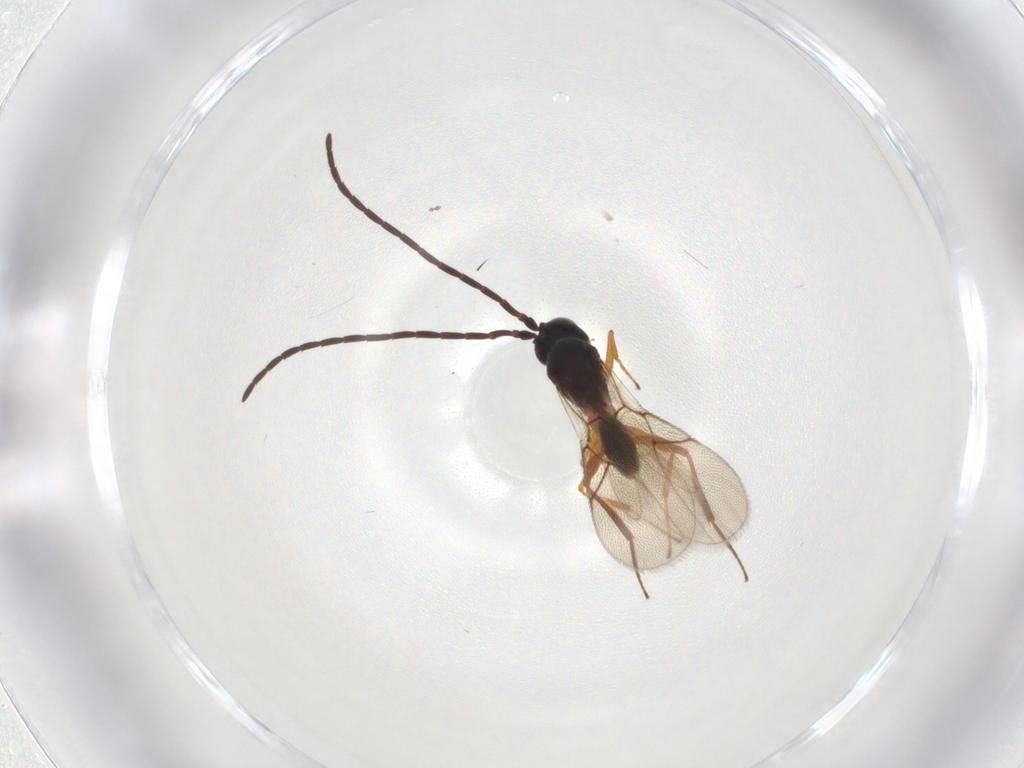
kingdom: Animalia
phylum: Arthropoda
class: Insecta
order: Hymenoptera
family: Figitidae
